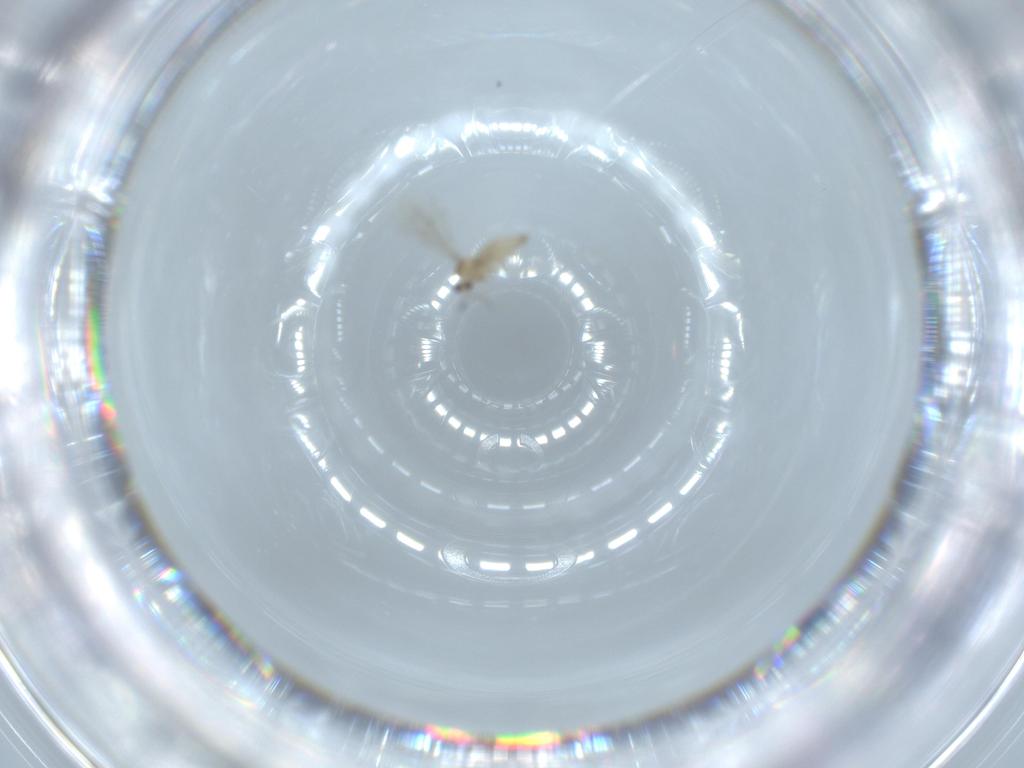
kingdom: Animalia
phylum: Arthropoda
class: Insecta
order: Diptera
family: Cecidomyiidae
